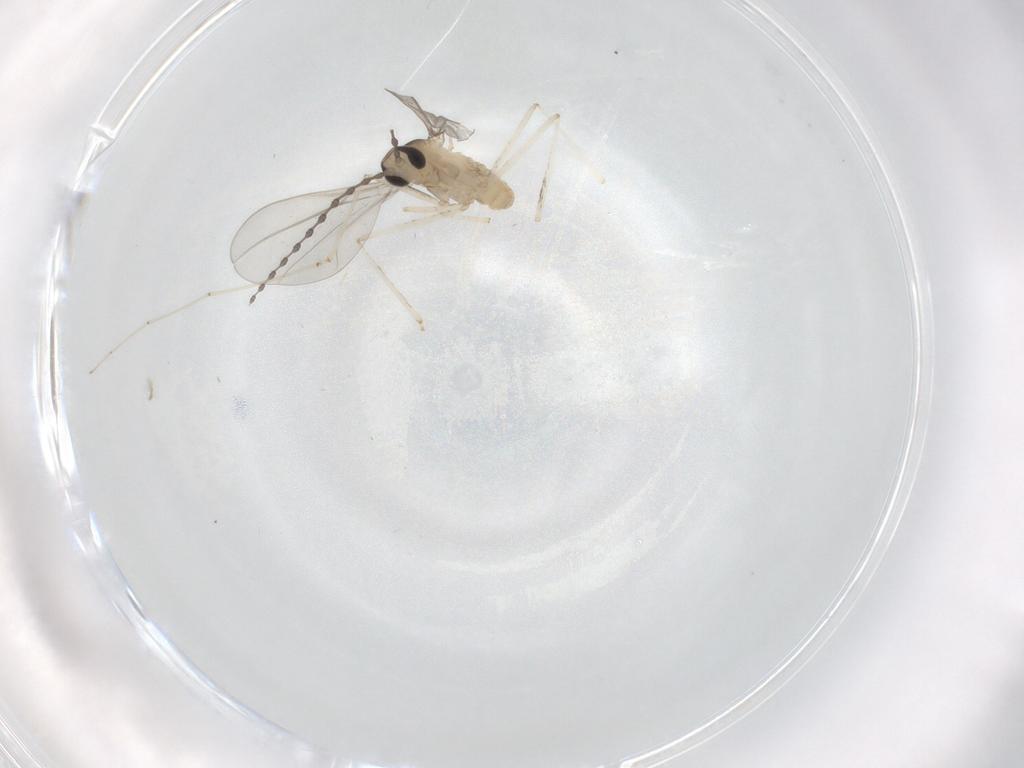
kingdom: Animalia
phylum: Arthropoda
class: Insecta
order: Diptera
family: Cecidomyiidae
